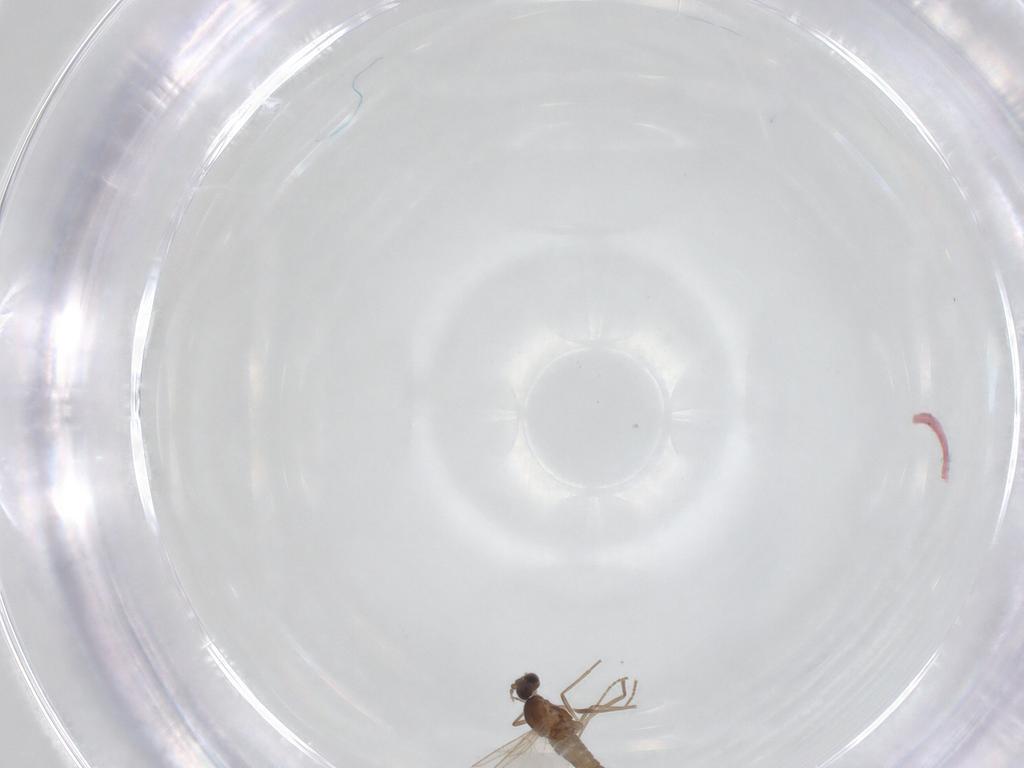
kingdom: Animalia
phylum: Arthropoda
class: Insecta
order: Diptera
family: Cecidomyiidae
